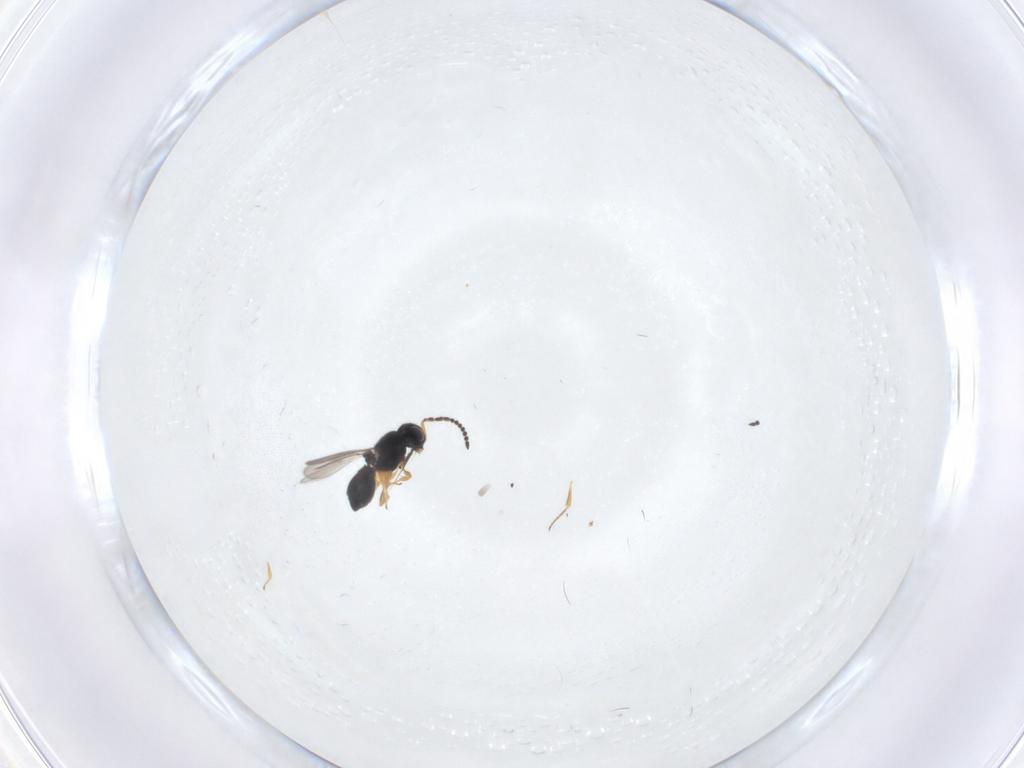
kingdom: Animalia
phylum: Arthropoda
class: Insecta
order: Hymenoptera
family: Scelionidae
